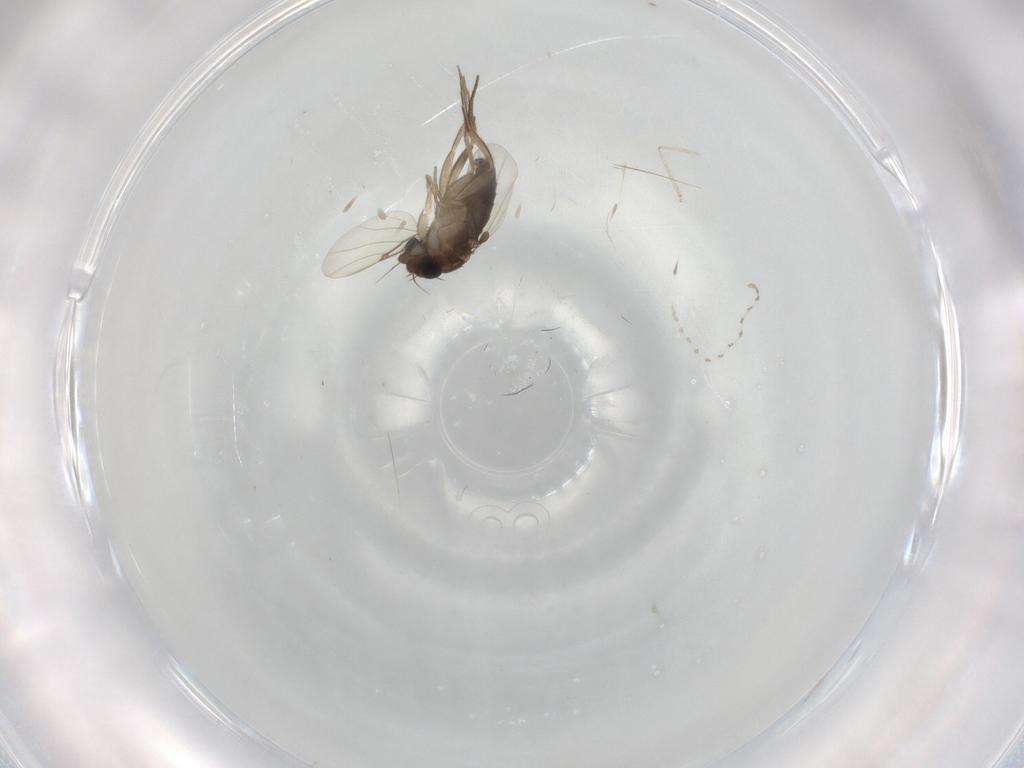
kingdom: Animalia
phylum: Arthropoda
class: Insecta
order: Diptera
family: Phoridae
